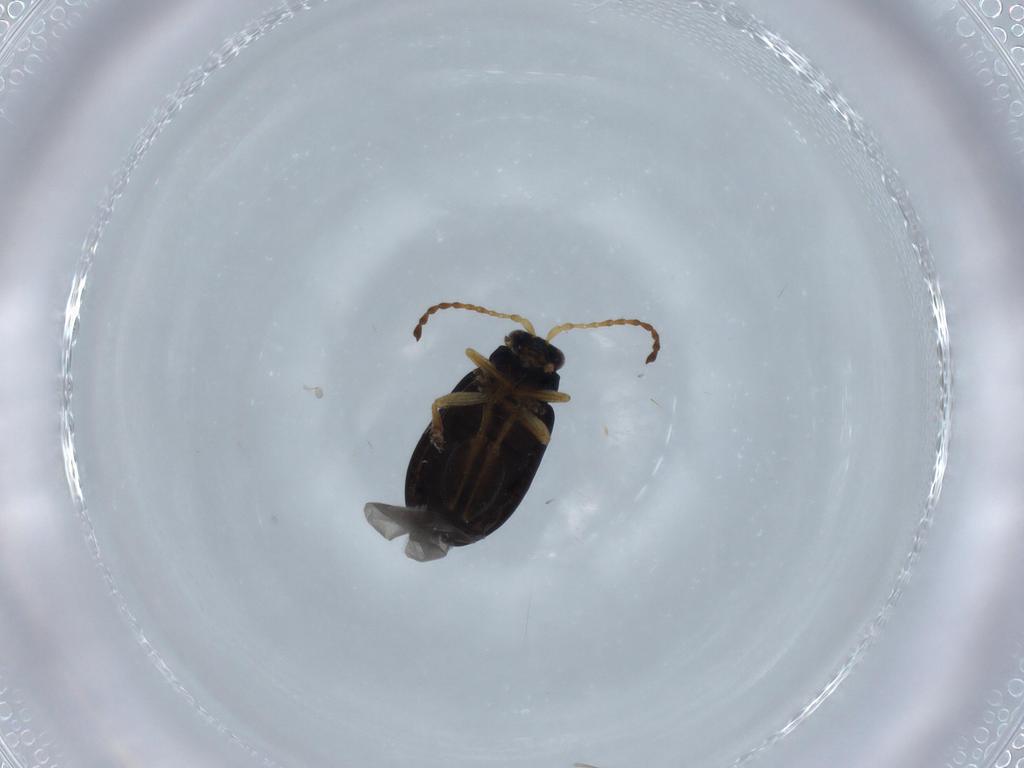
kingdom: Animalia
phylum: Arthropoda
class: Insecta
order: Coleoptera
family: Chrysomelidae
